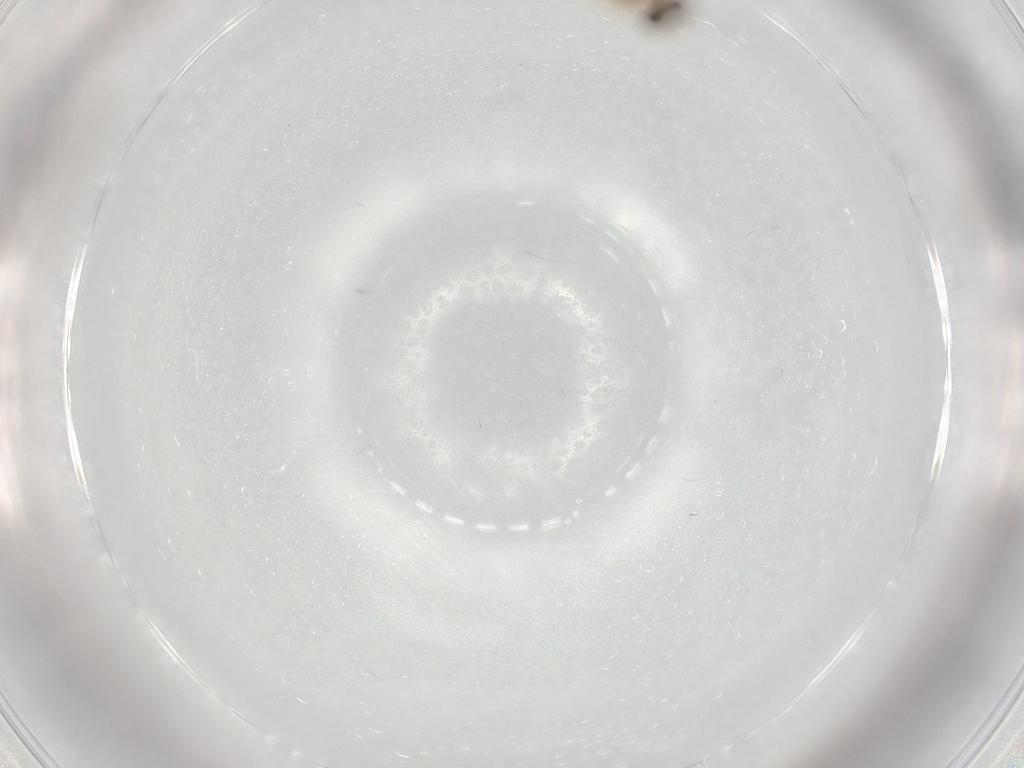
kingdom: Animalia
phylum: Arthropoda
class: Insecta
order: Diptera
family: Chironomidae
